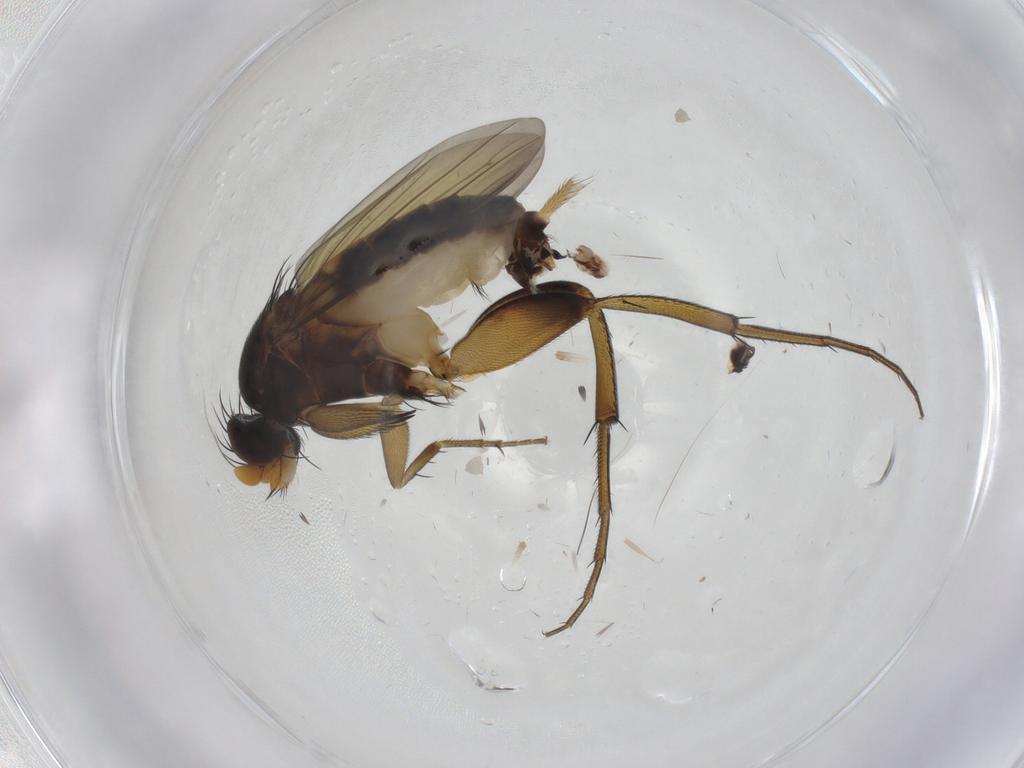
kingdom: Animalia
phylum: Arthropoda
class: Insecta
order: Diptera
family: Phoridae
